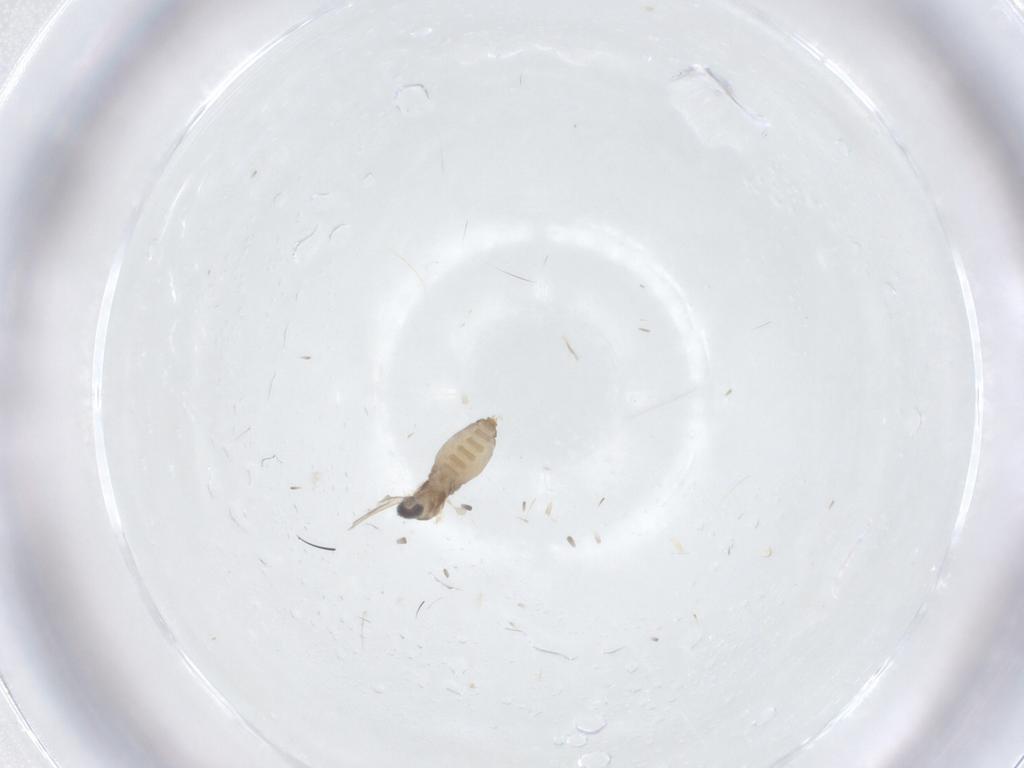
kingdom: Animalia
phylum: Arthropoda
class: Insecta
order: Diptera
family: Cecidomyiidae
